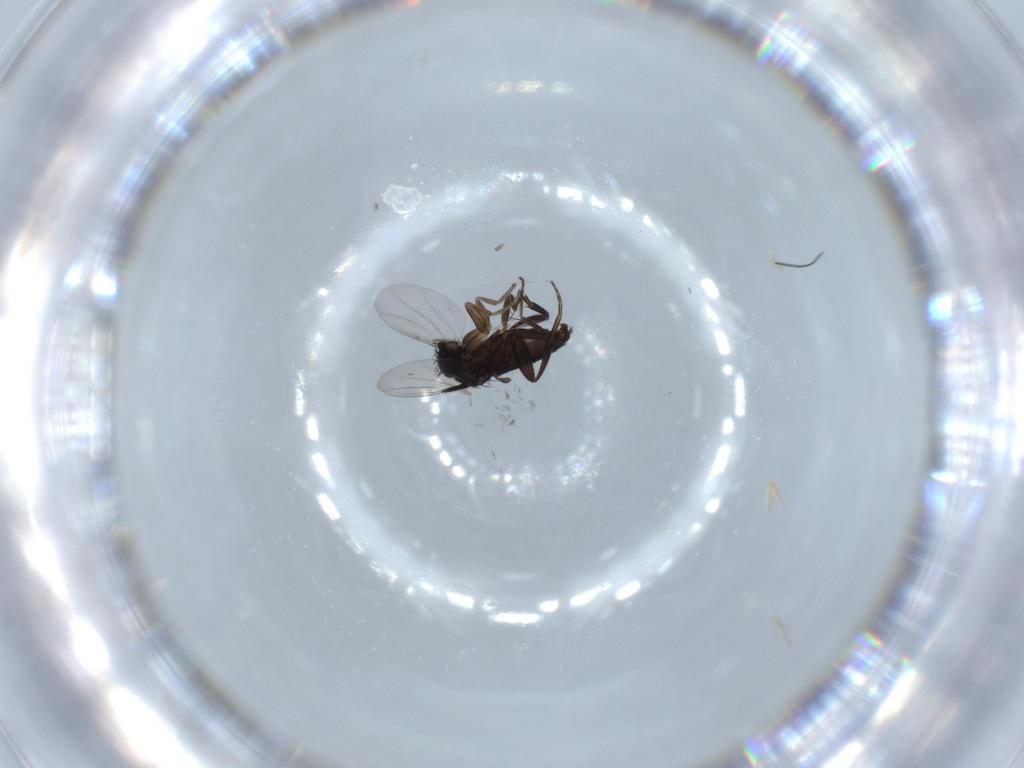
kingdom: Animalia
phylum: Arthropoda
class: Insecta
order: Diptera
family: Phoridae
